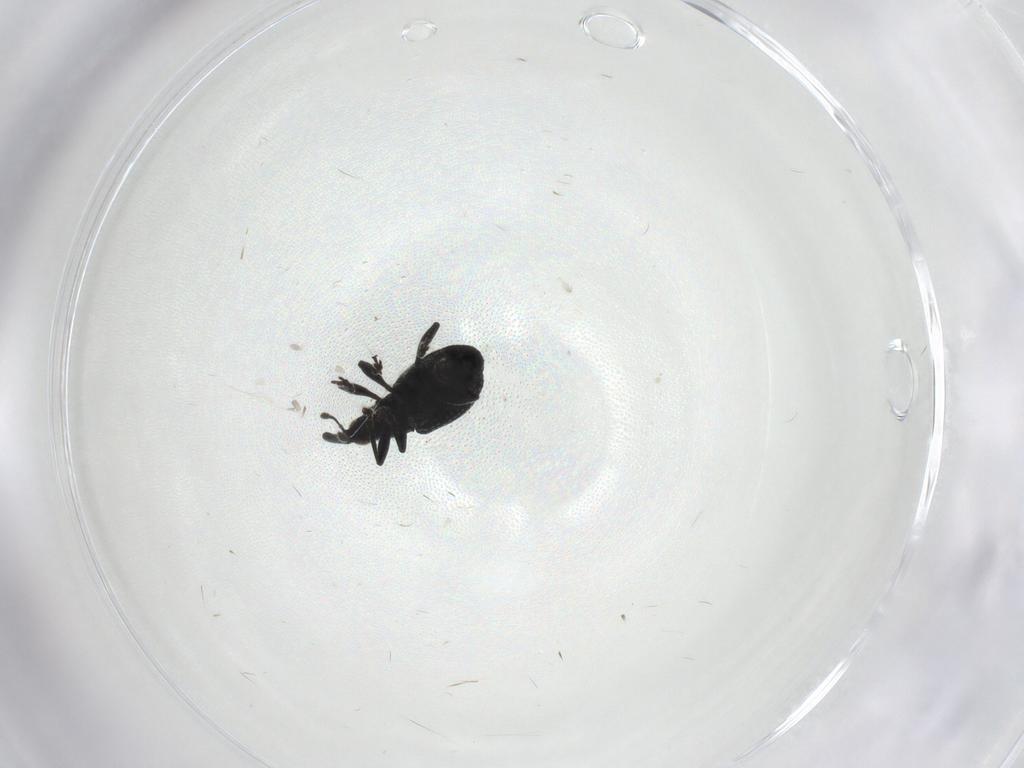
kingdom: Animalia
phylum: Arthropoda
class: Insecta
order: Coleoptera
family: Brentidae
